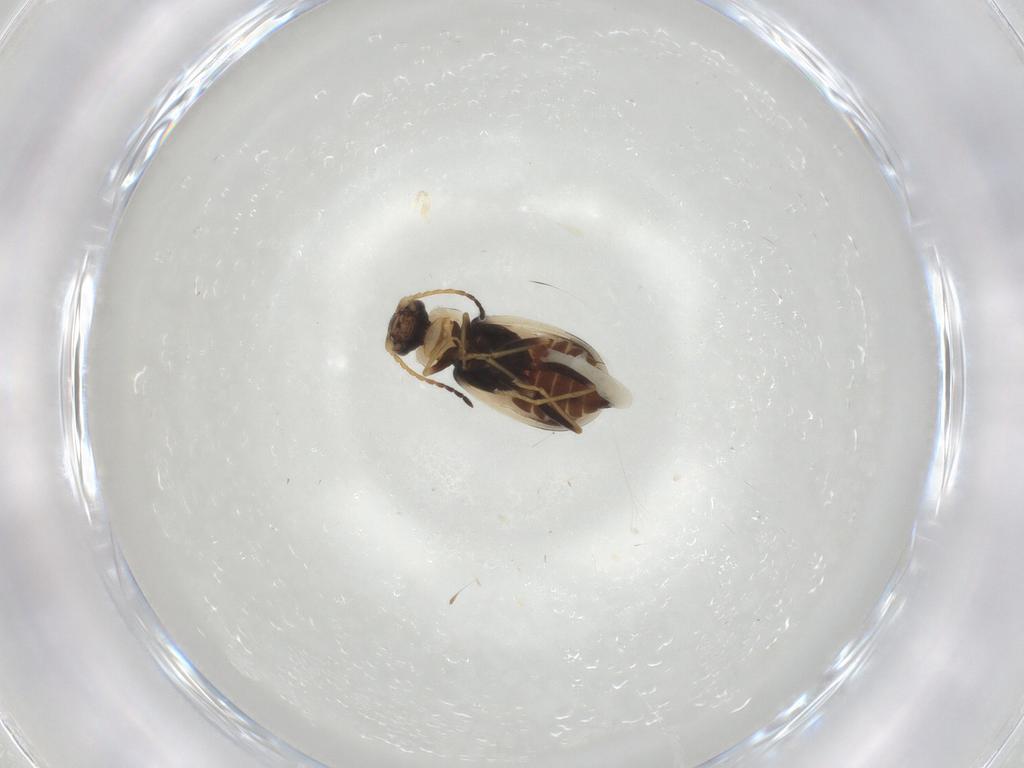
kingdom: Animalia
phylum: Arthropoda
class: Insecta
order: Coleoptera
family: Melyridae
